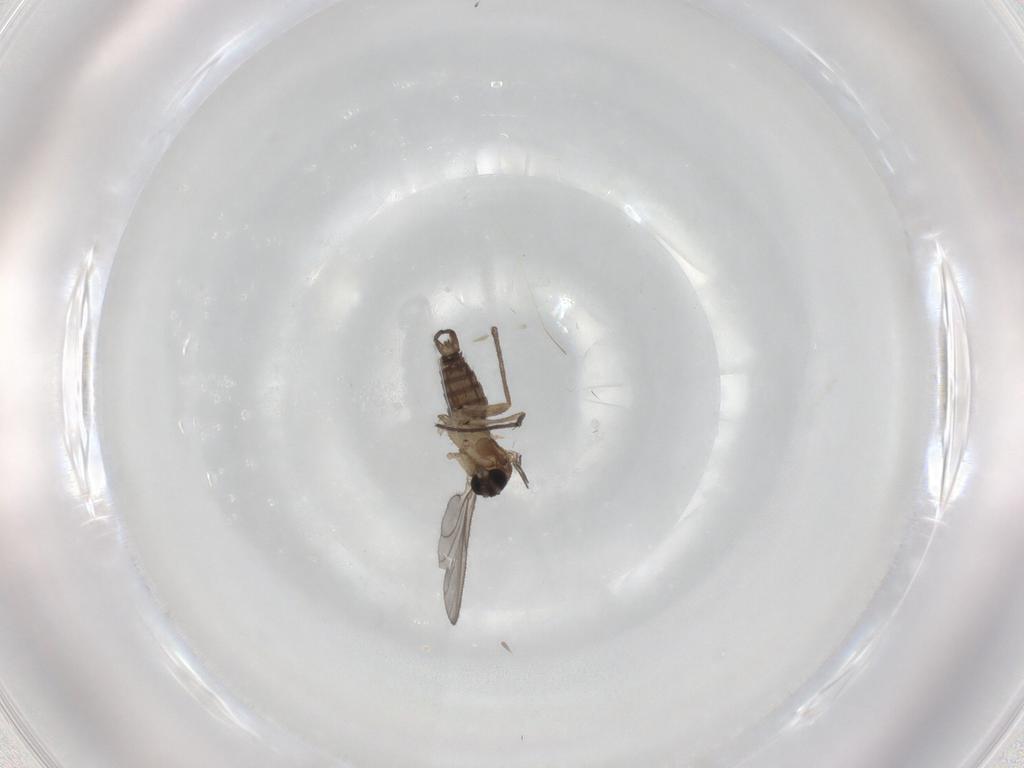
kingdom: Animalia
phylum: Arthropoda
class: Insecta
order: Diptera
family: Sciaridae
